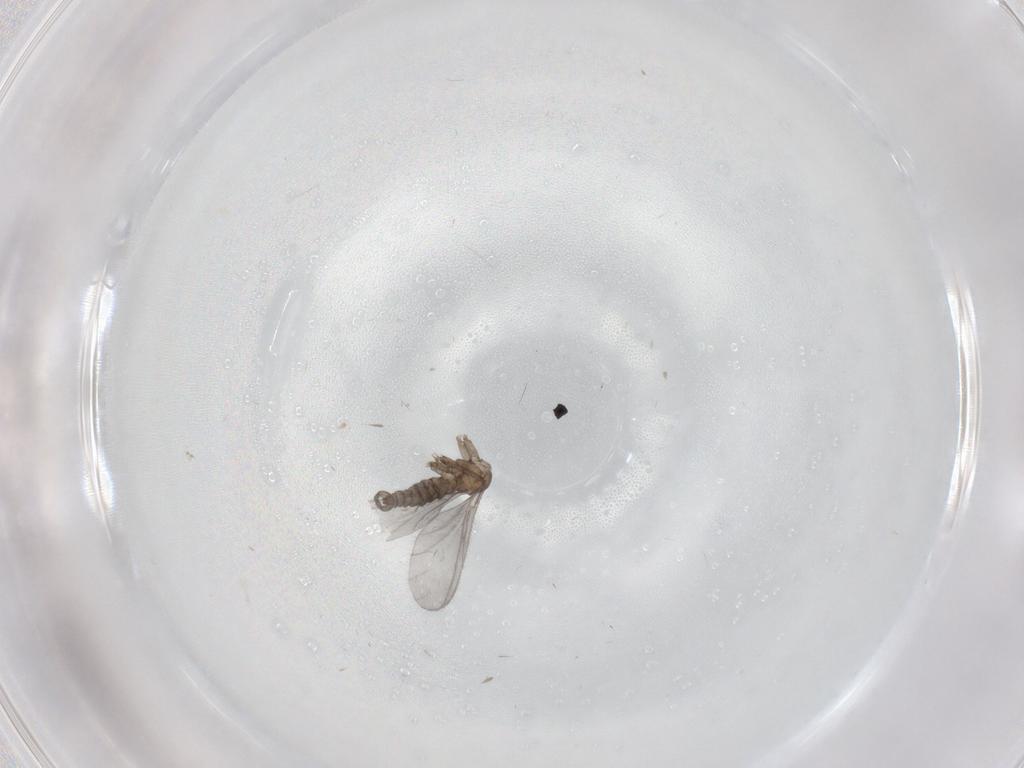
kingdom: Animalia
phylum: Arthropoda
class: Insecta
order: Diptera
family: Sciaridae
